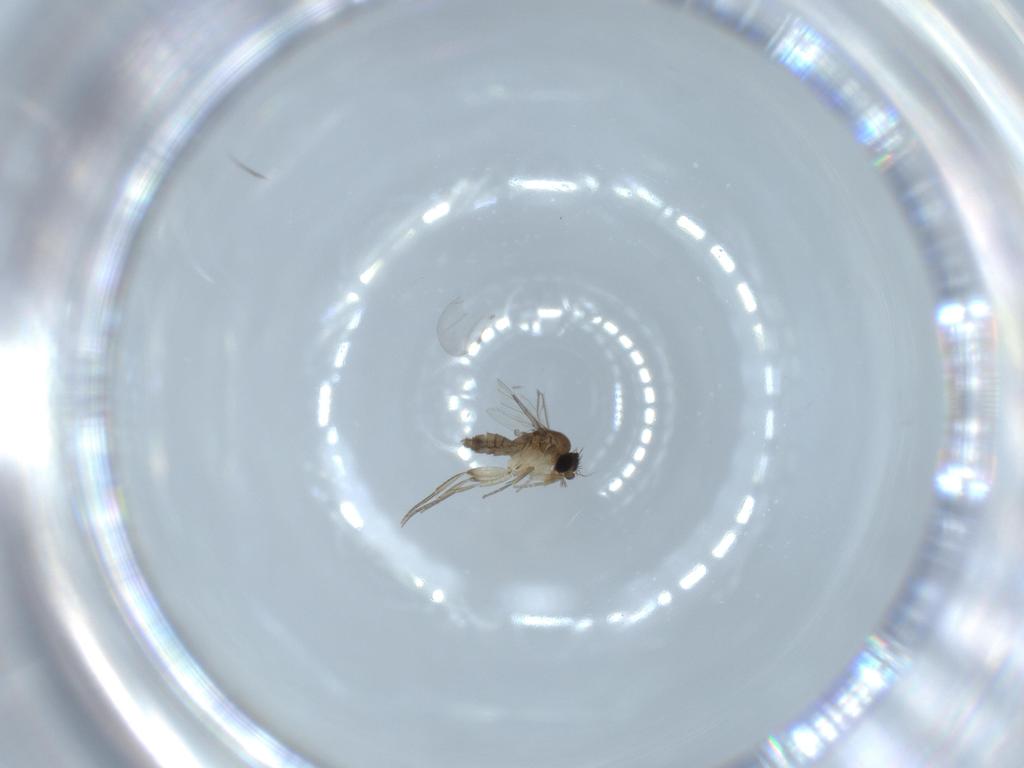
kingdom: Animalia
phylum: Arthropoda
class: Insecta
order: Diptera
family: Phoridae
